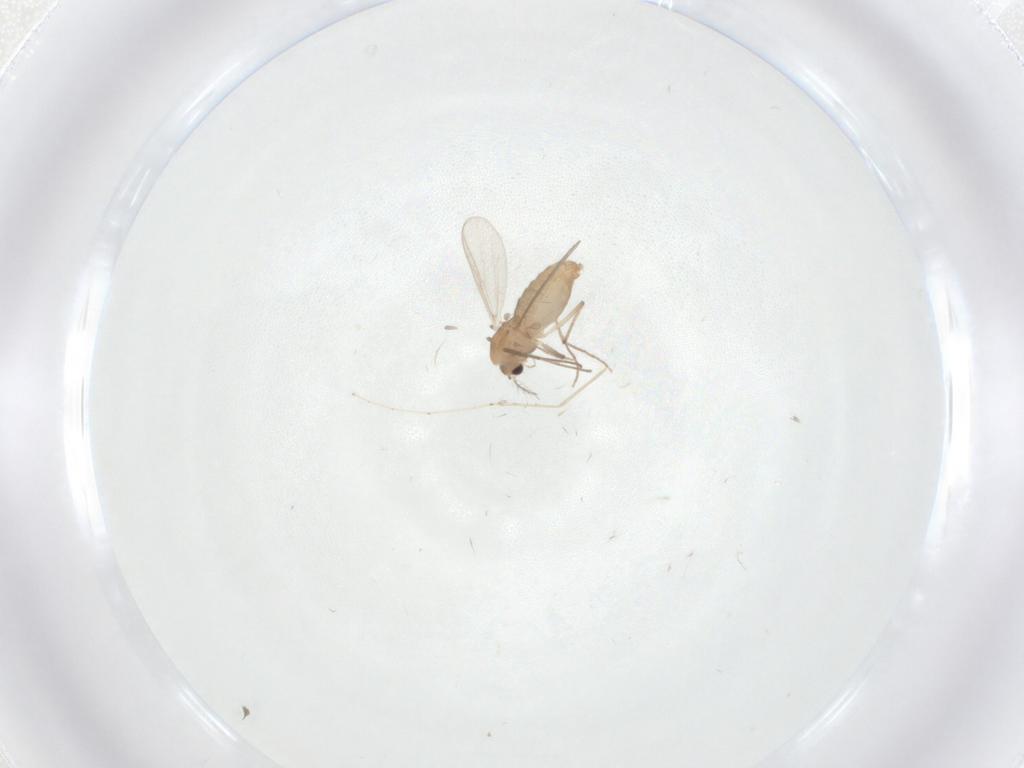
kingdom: Animalia
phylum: Arthropoda
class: Insecta
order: Diptera
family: Chironomidae
